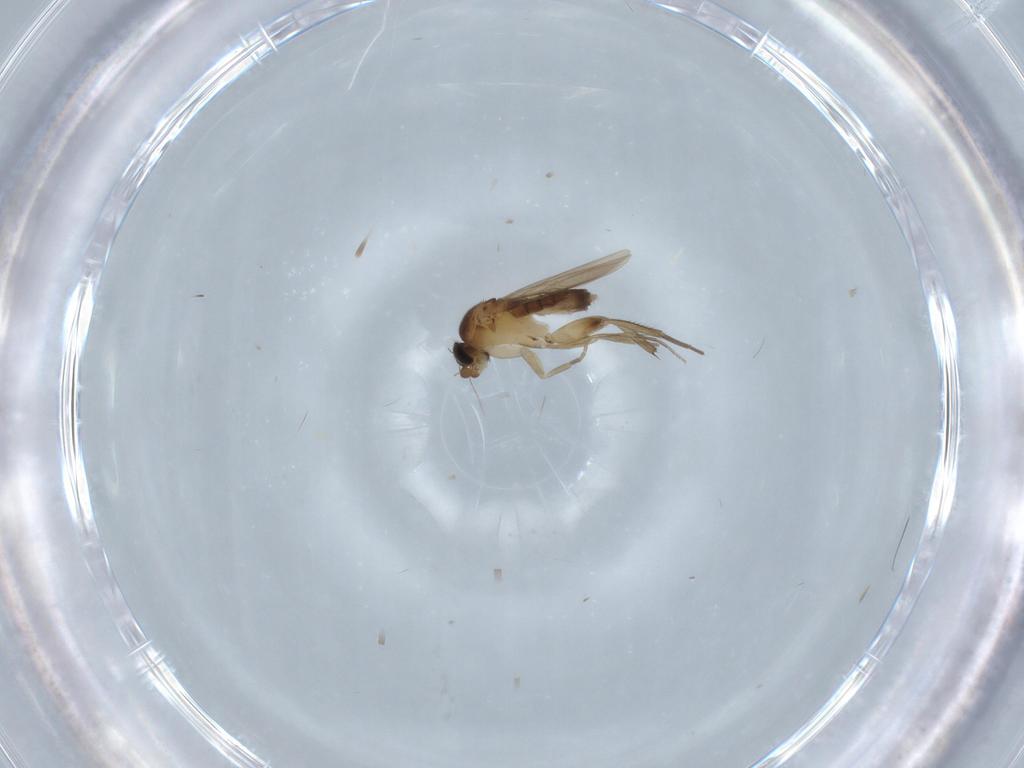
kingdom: Animalia
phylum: Arthropoda
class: Insecta
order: Diptera
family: Phoridae
